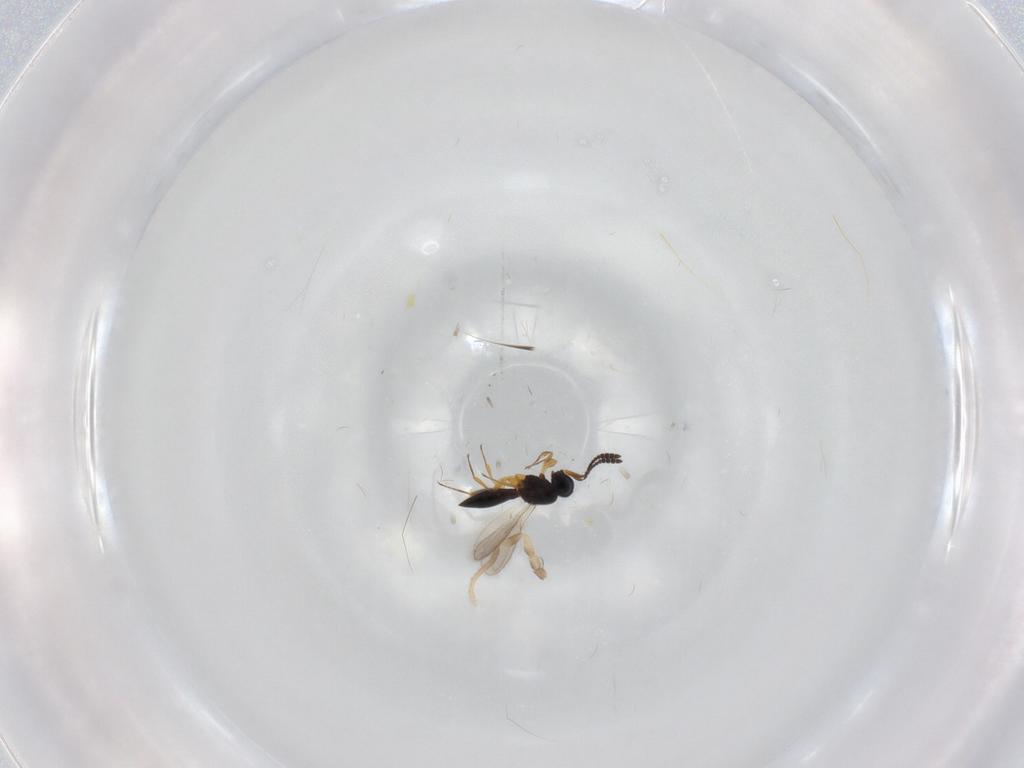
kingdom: Animalia
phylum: Arthropoda
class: Insecta
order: Hymenoptera
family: Scelionidae
